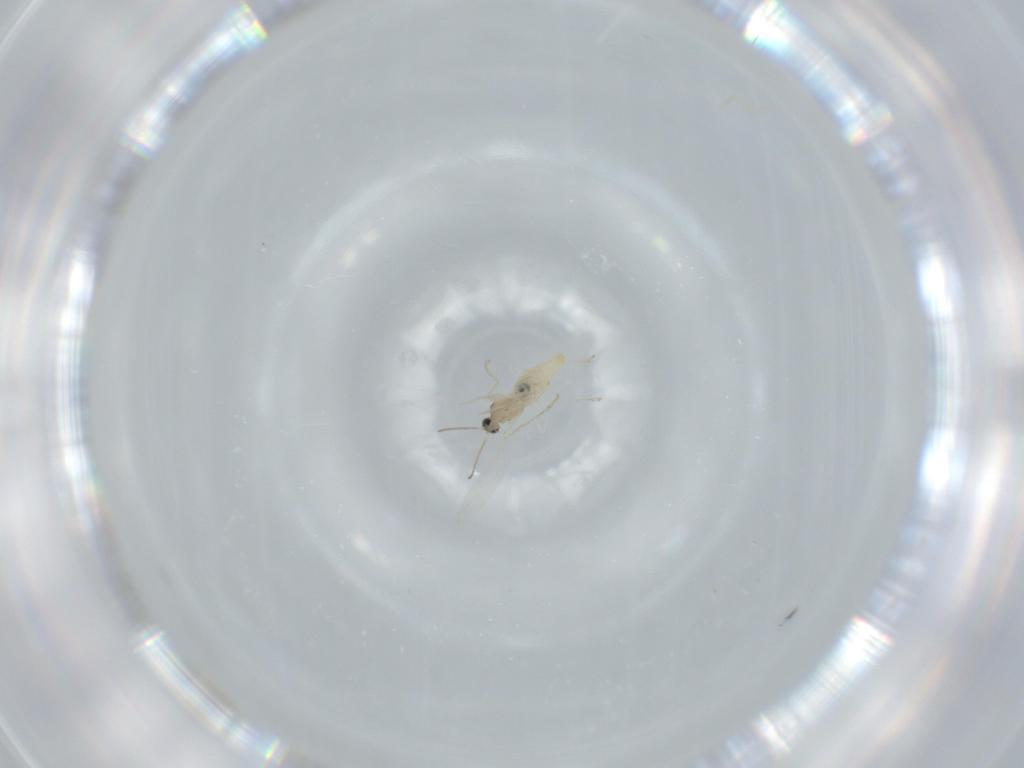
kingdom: Animalia
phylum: Arthropoda
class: Insecta
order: Diptera
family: Cecidomyiidae
